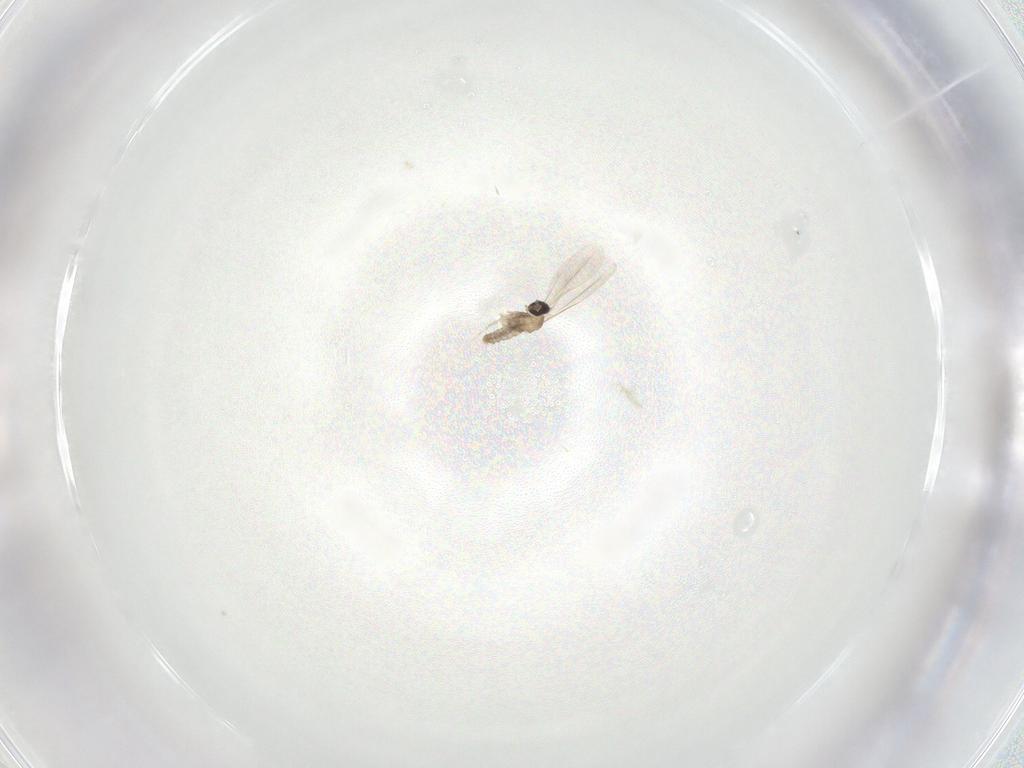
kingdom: Animalia
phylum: Arthropoda
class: Insecta
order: Diptera
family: Cecidomyiidae
